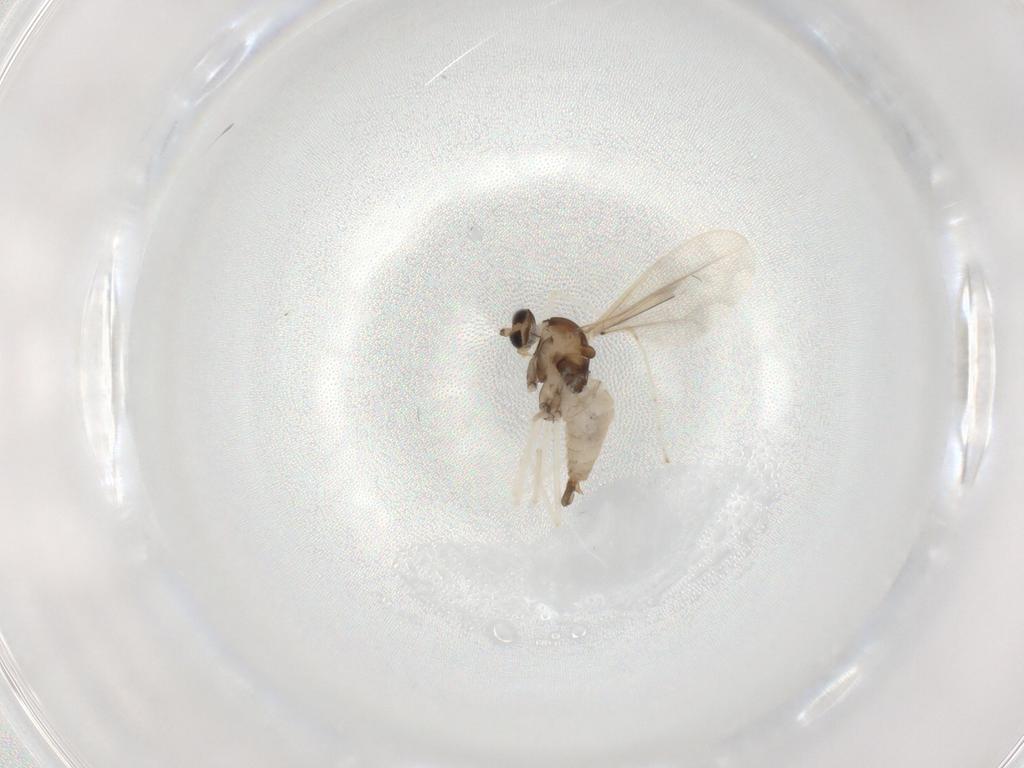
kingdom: Animalia
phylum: Arthropoda
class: Insecta
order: Diptera
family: Cecidomyiidae
